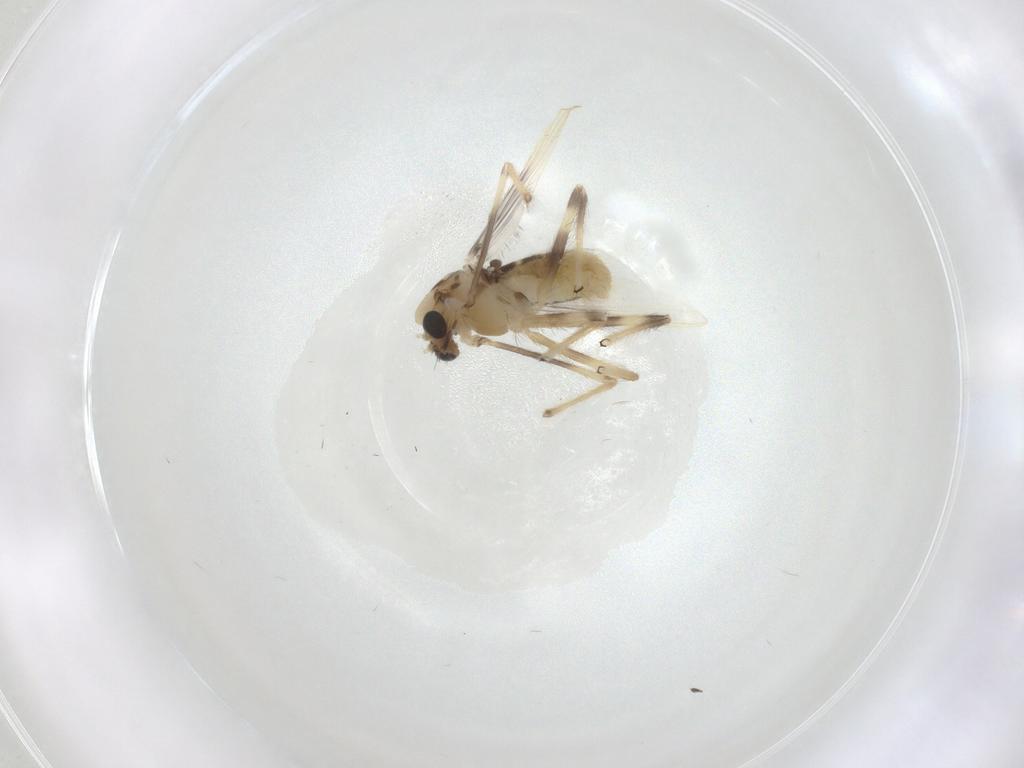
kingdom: Animalia
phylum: Arthropoda
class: Insecta
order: Diptera
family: Chironomidae
